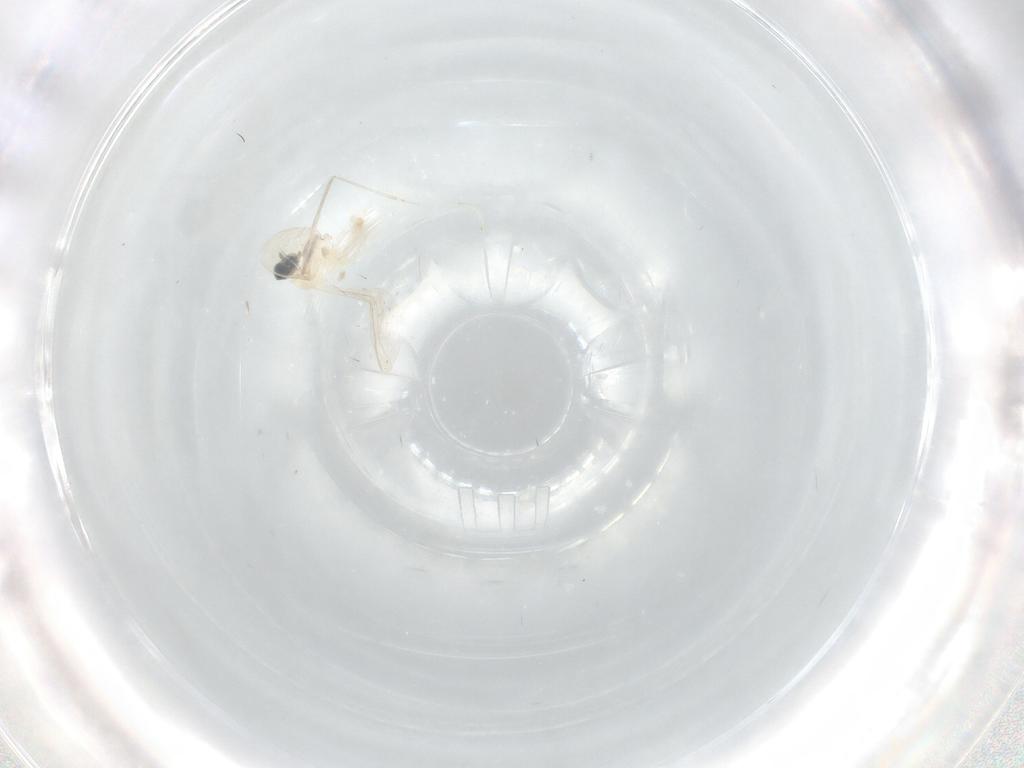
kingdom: Animalia
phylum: Arthropoda
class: Insecta
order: Diptera
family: Cecidomyiidae
